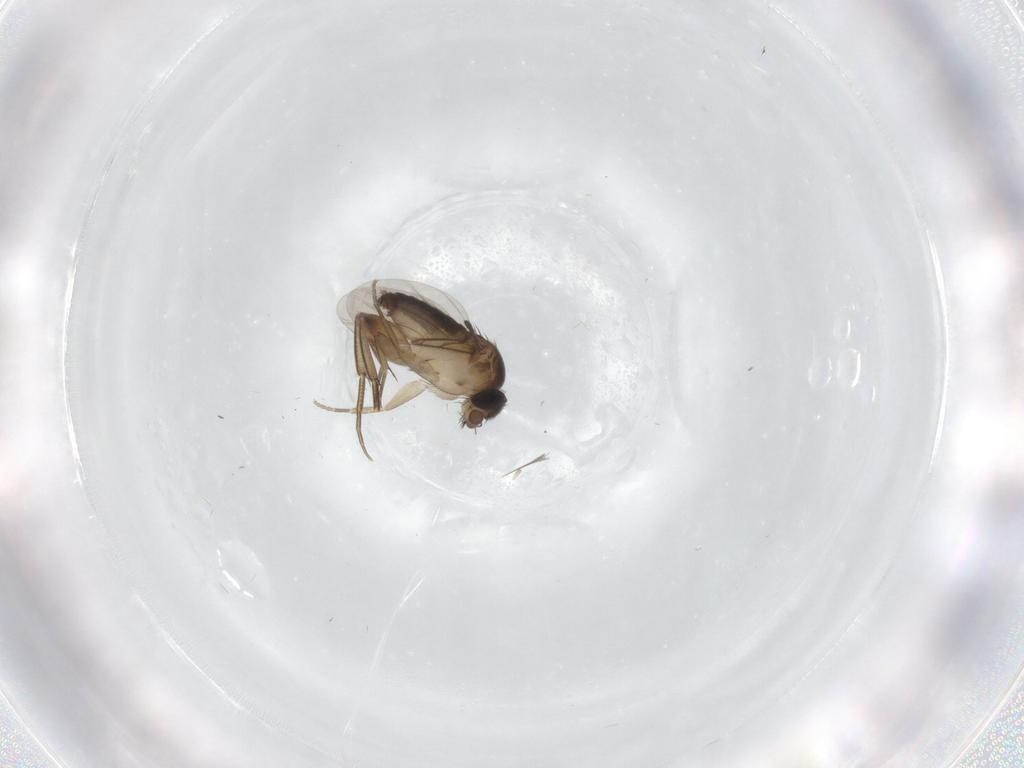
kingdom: Animalia
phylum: Arthropoda
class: Insecta
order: Diptera
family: Phoridae
